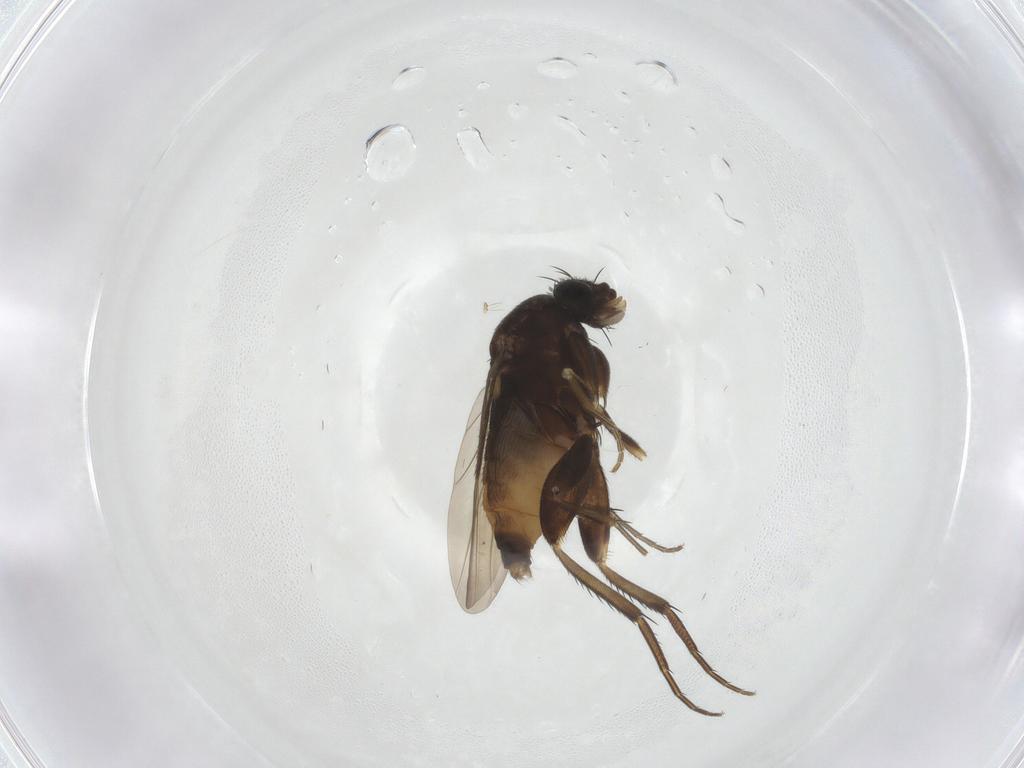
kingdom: Animalia
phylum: Arthropoda
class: Insecta
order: Diptera
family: Phoridae
